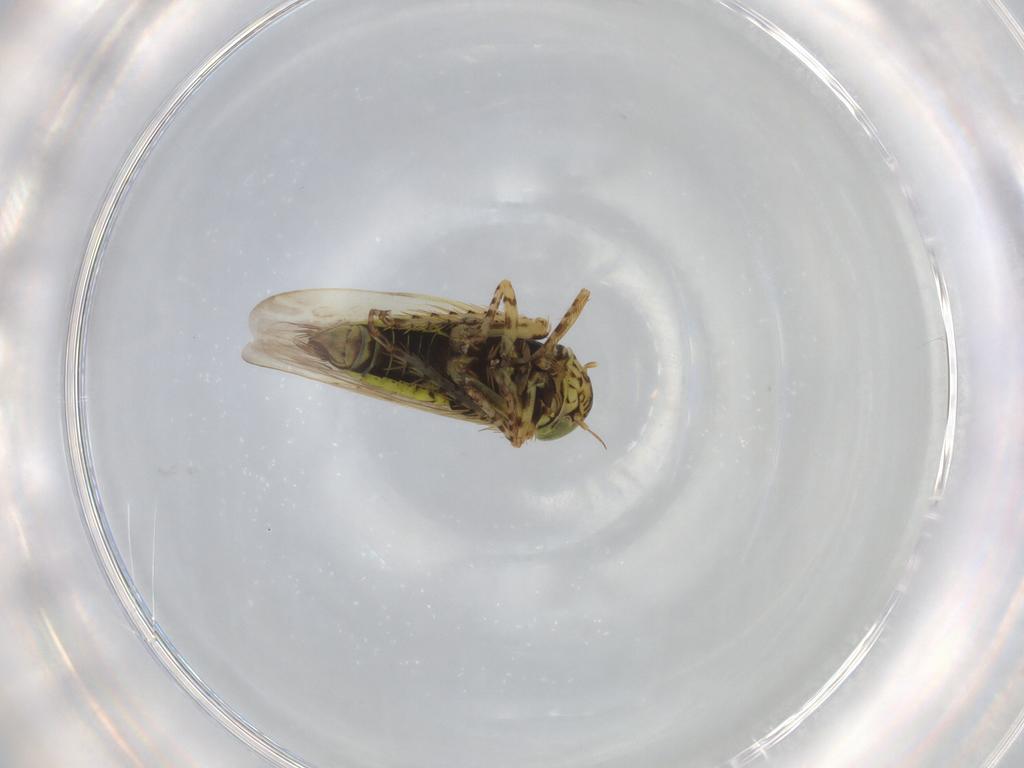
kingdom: Animalia
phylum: Arthropoda
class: Insecta
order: Hemiptera
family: Cicadellidae
